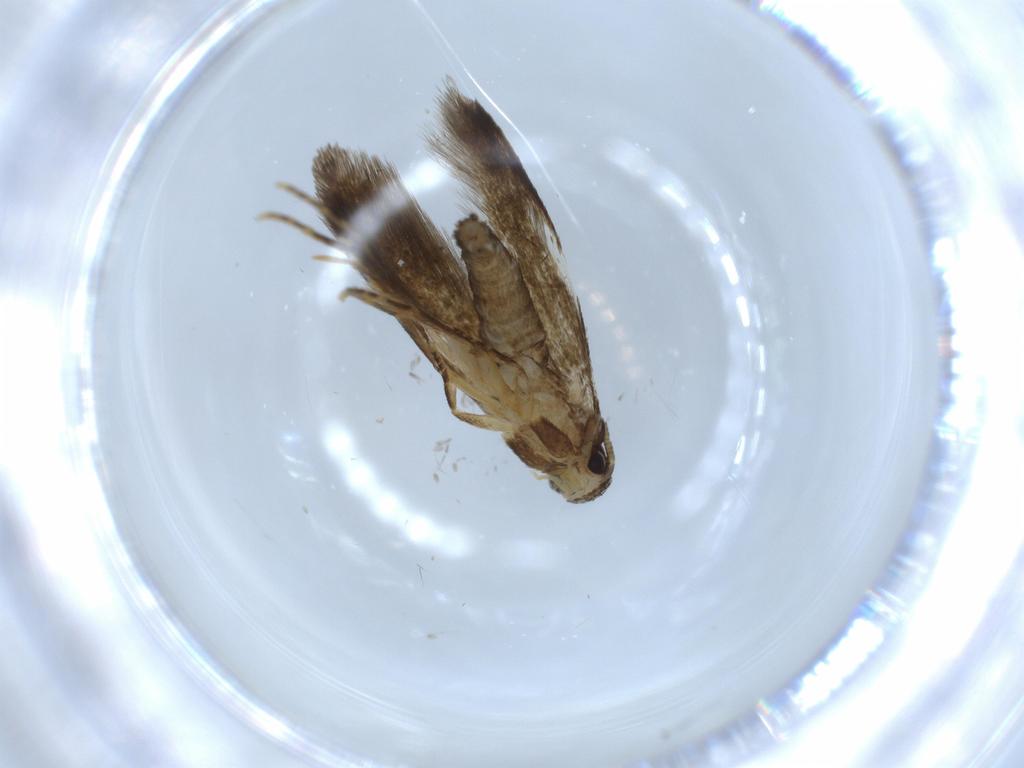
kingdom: Animalia
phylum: Arthropoda
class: Insecta
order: Lepidoptera
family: Tineidae
